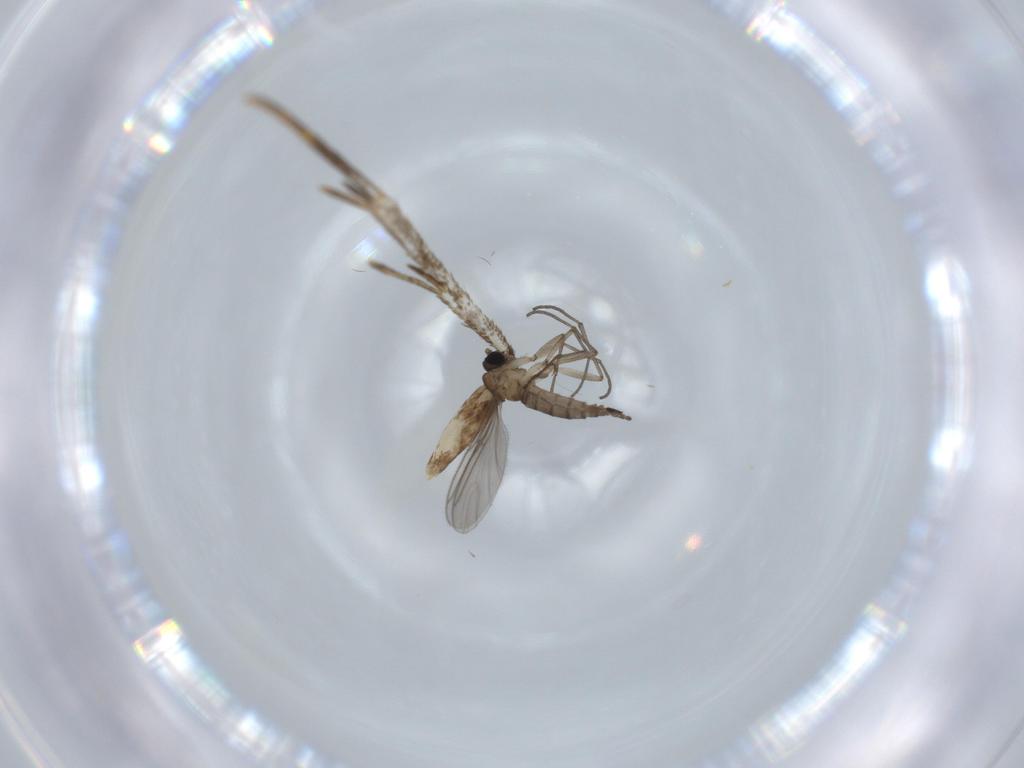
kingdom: Animalia
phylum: Arthropoda
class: Insecta
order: Diptera
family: Sciaridae
